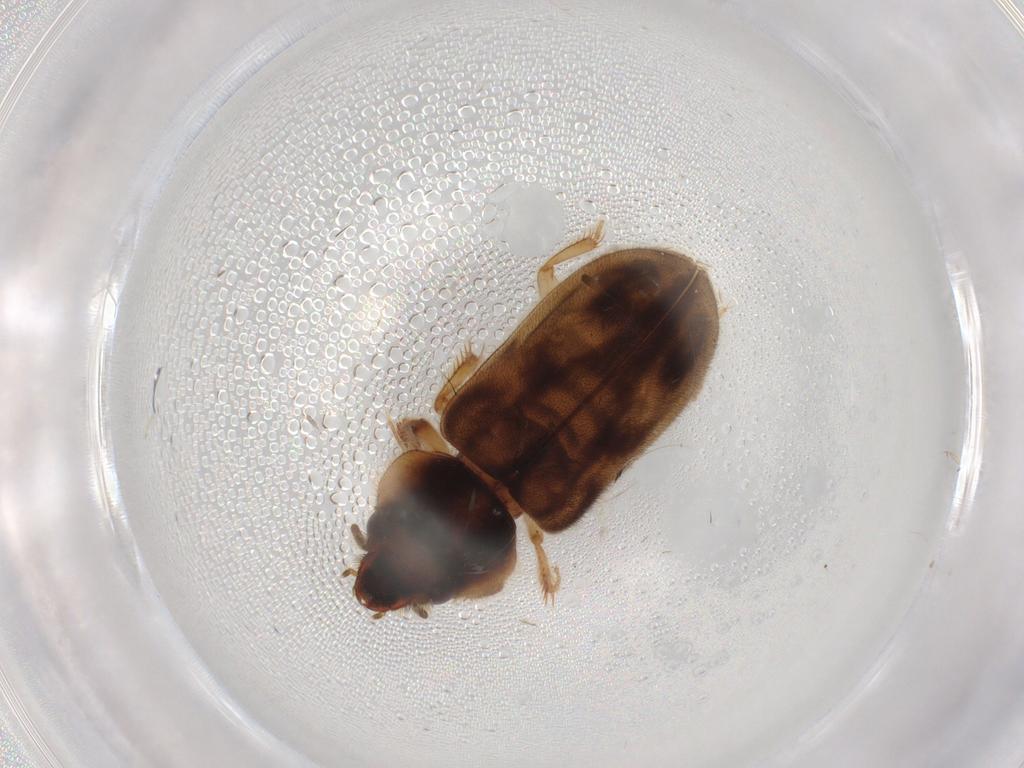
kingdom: Animalia
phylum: Arthropoda
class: Insecta
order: Coleoptera
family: Heteroceridae
